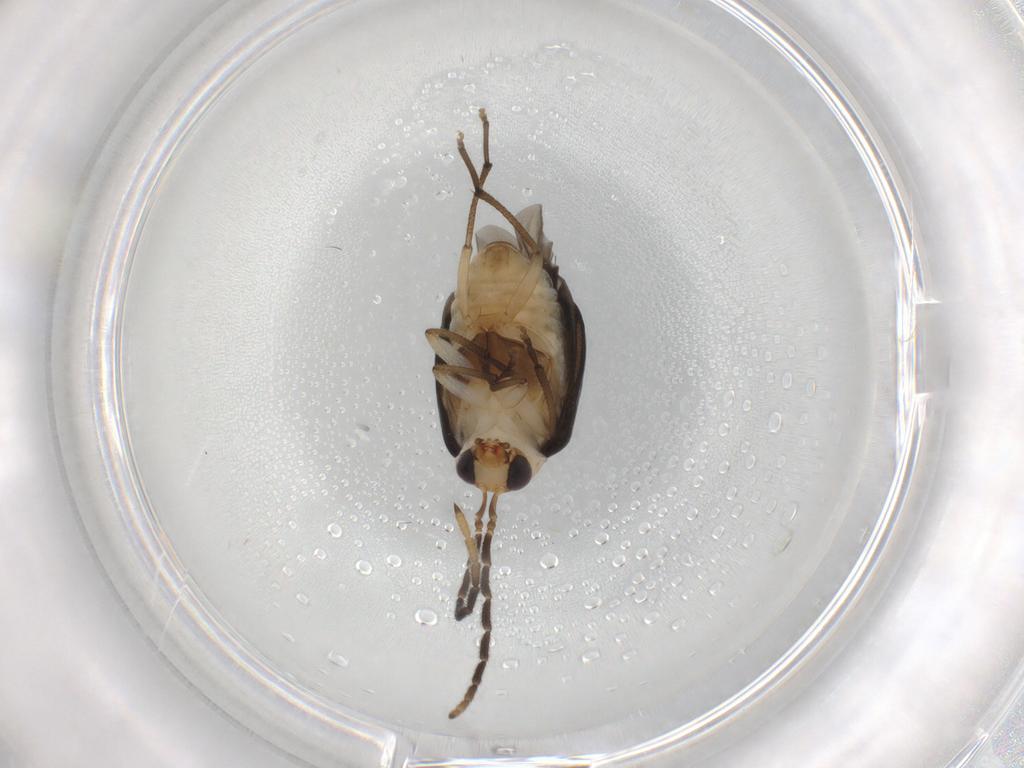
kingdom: Animalia
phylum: Arthropoda
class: Insecta
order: Coleoptera
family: Chrysomelidae
